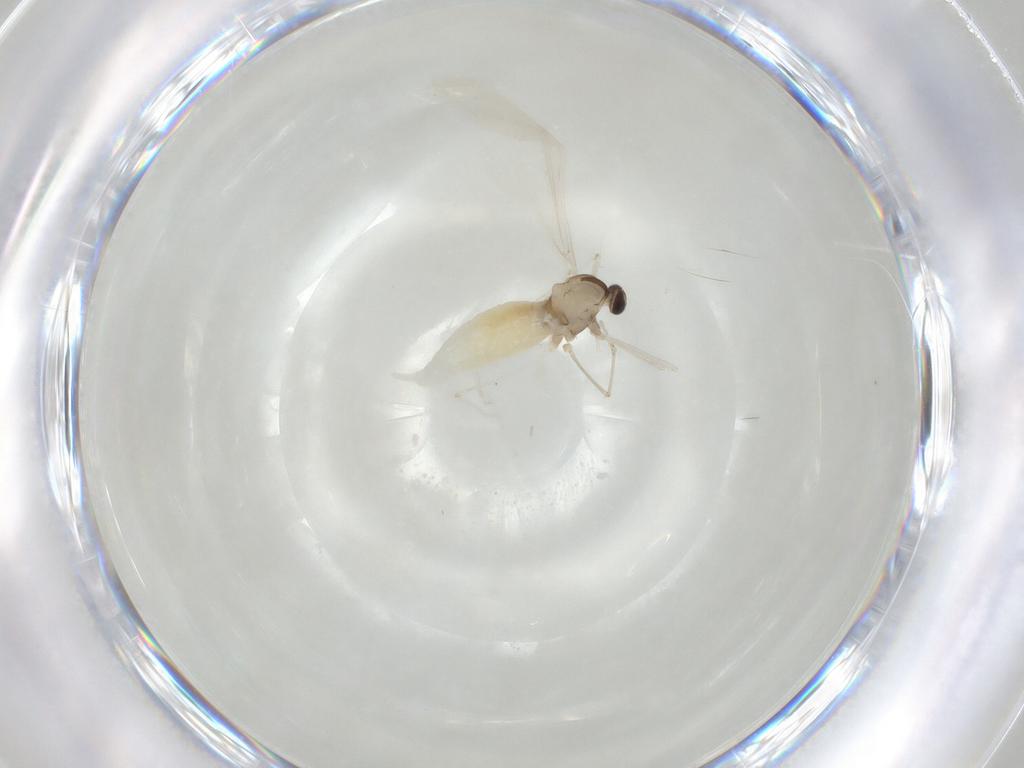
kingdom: Animalia
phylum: Arthropoda
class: Insecta
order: Diptera
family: Cecidomyiidae
